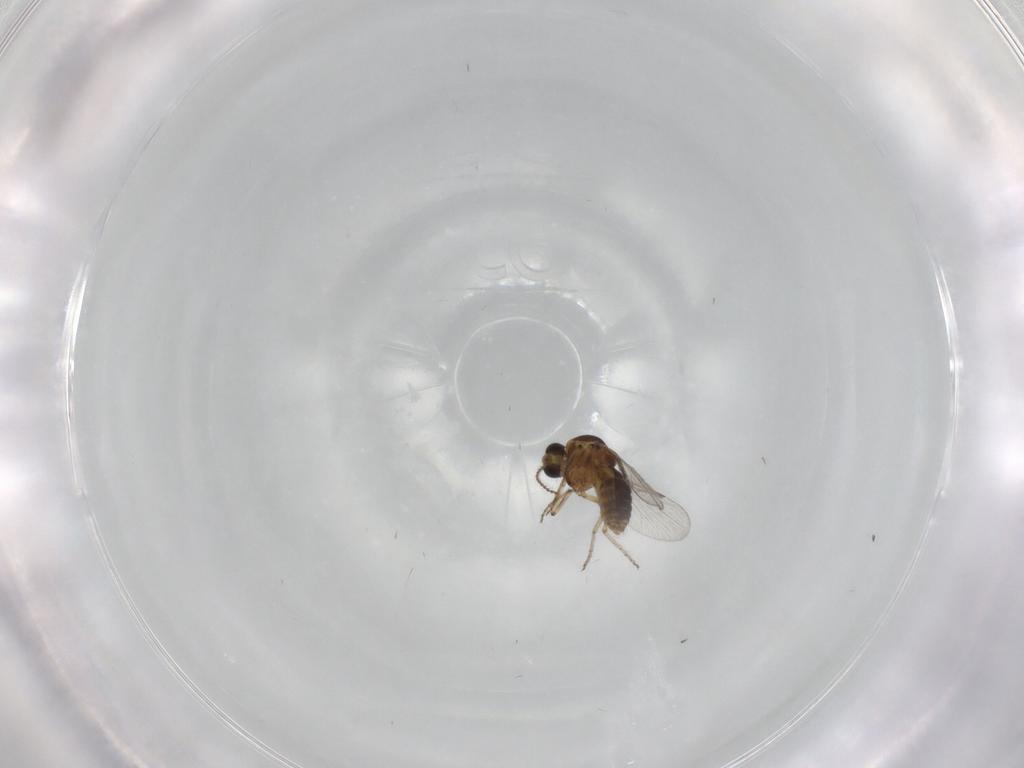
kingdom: Animalia
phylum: Arthropoda
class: Insecta
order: Diptera
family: Ceratopogonidae
